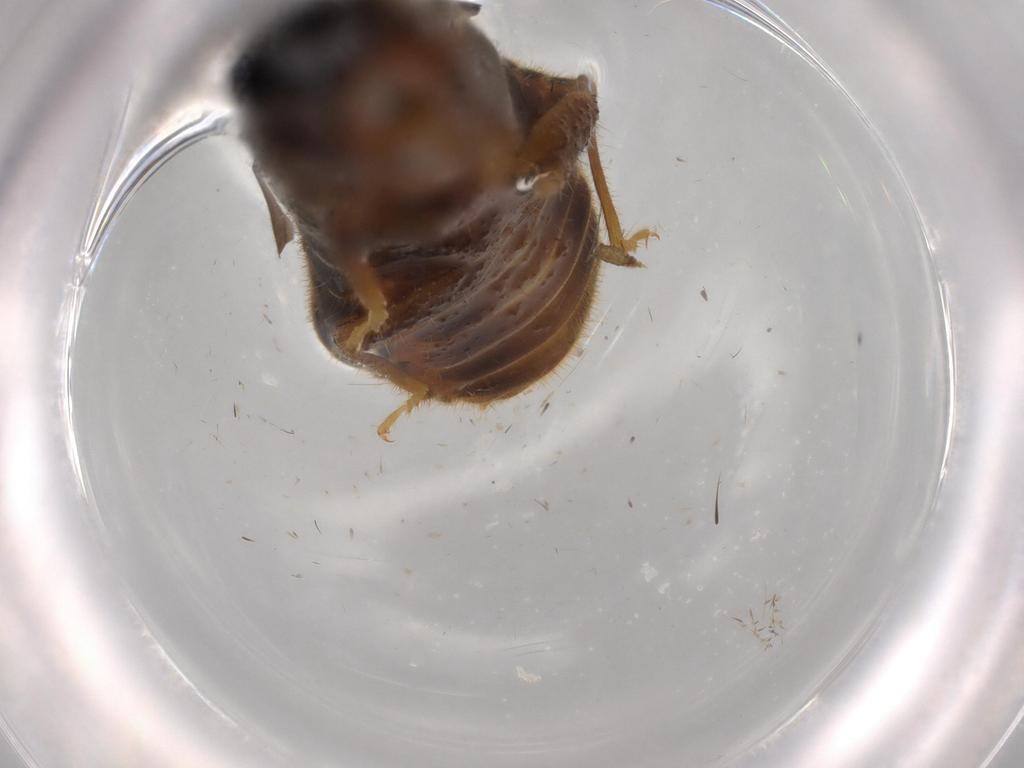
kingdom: Animalia
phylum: Arthropoda
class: Insecta
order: Blattodea
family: Termitidae
